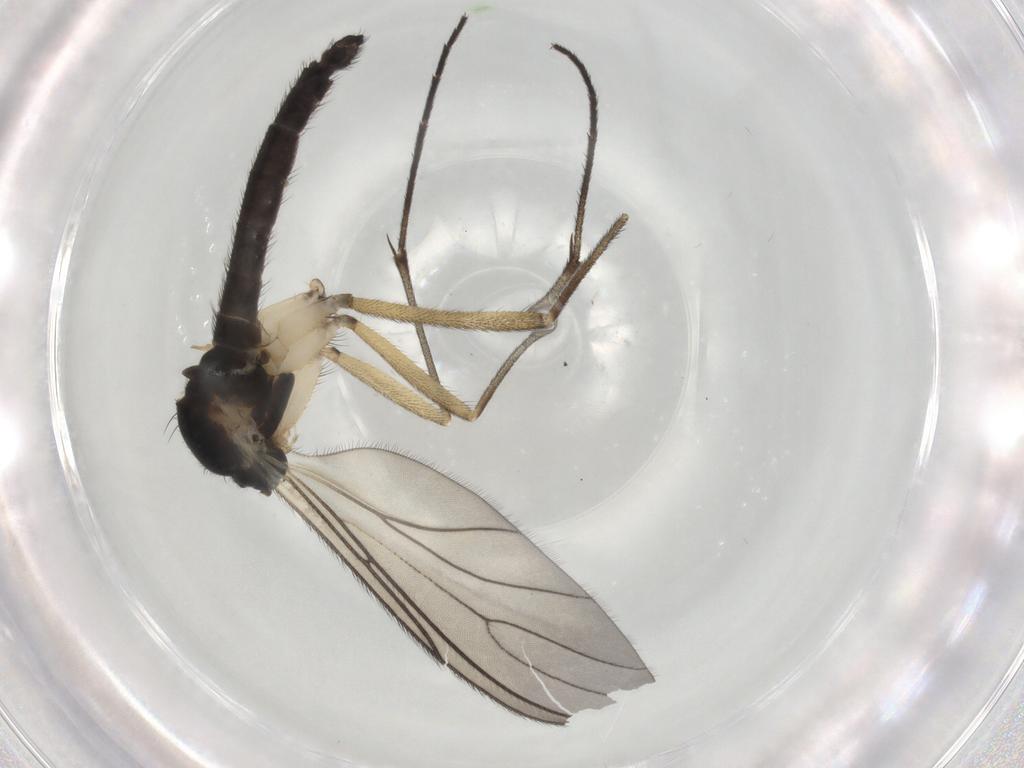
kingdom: Animalia
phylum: Arthropoda
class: Insecta
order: Diptera
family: Sciaridae
